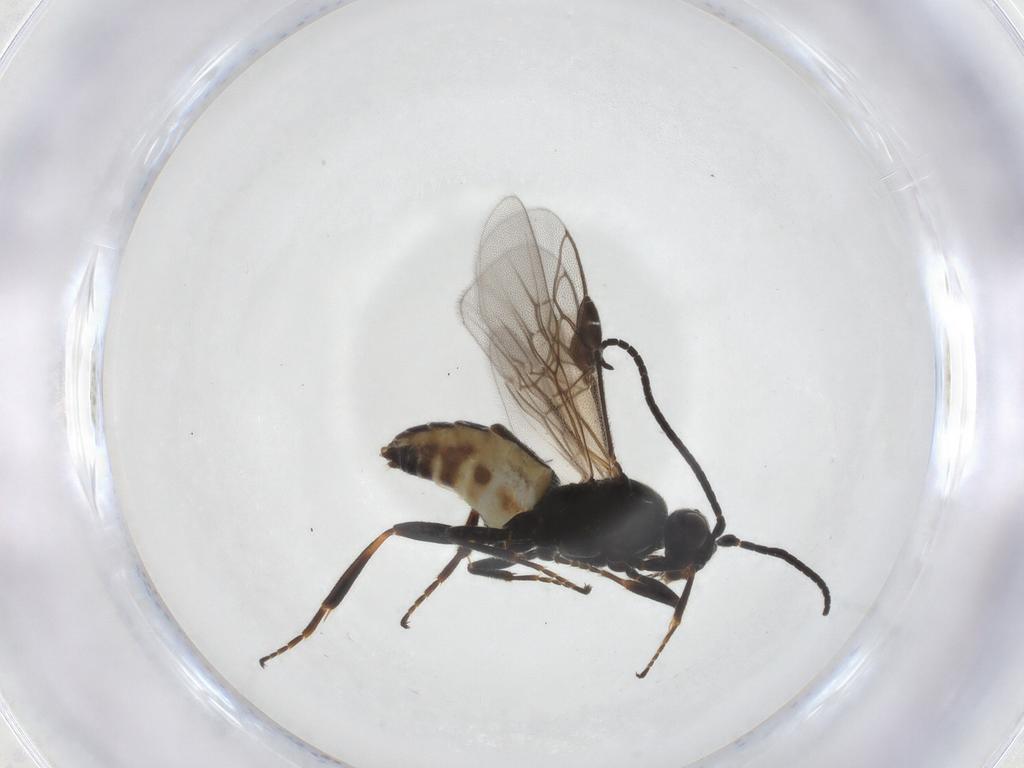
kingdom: Animalia
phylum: Arthropoda
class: Insecta
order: Hymenoptera
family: Braconidae
